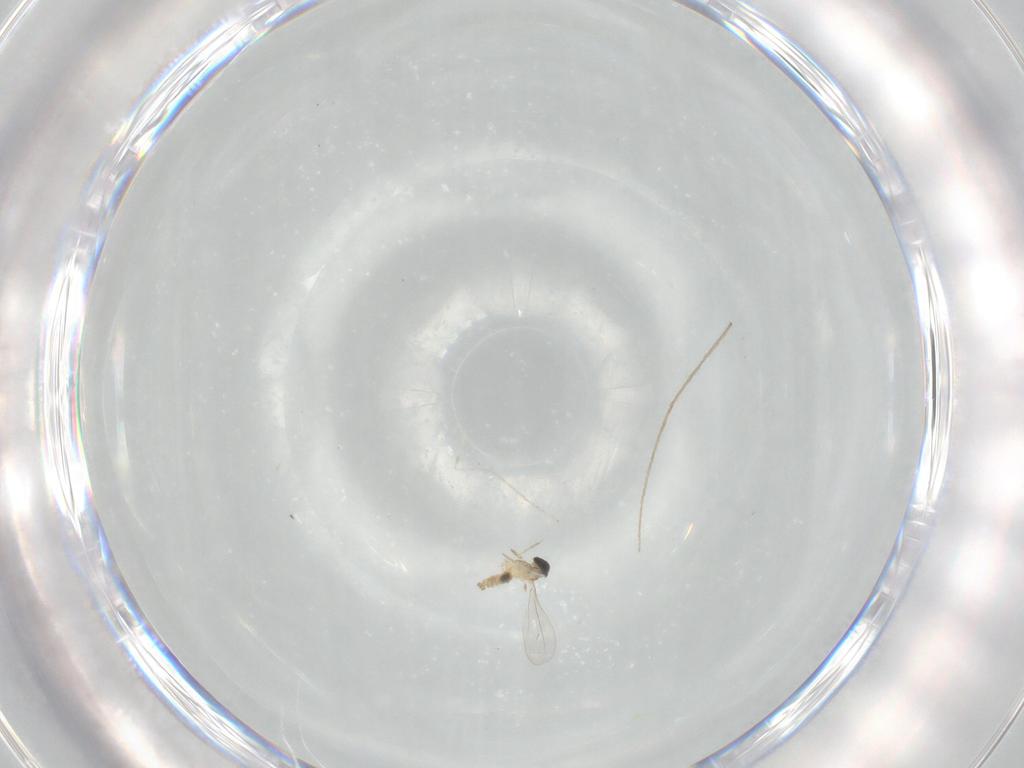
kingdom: Animalia
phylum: Arthropoda
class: Insecta
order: Diptera
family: Cecidomyiidae
